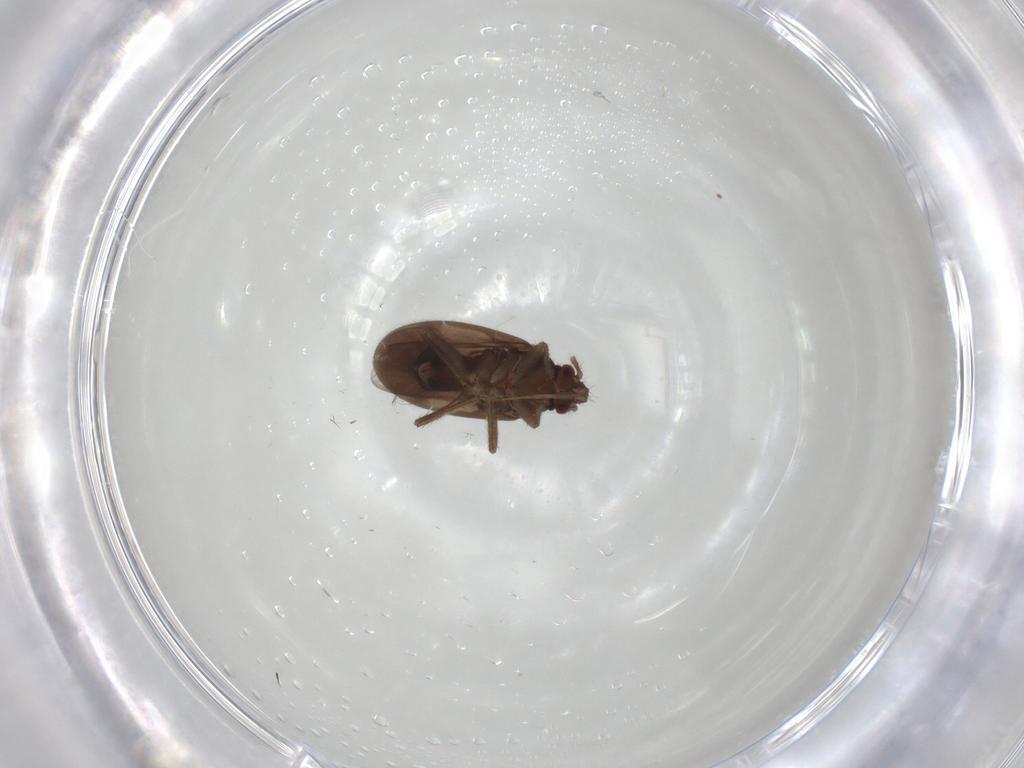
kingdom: Animalia
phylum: Arthropoda
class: Insecta
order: Hemiptera
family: Ceratocombidae
